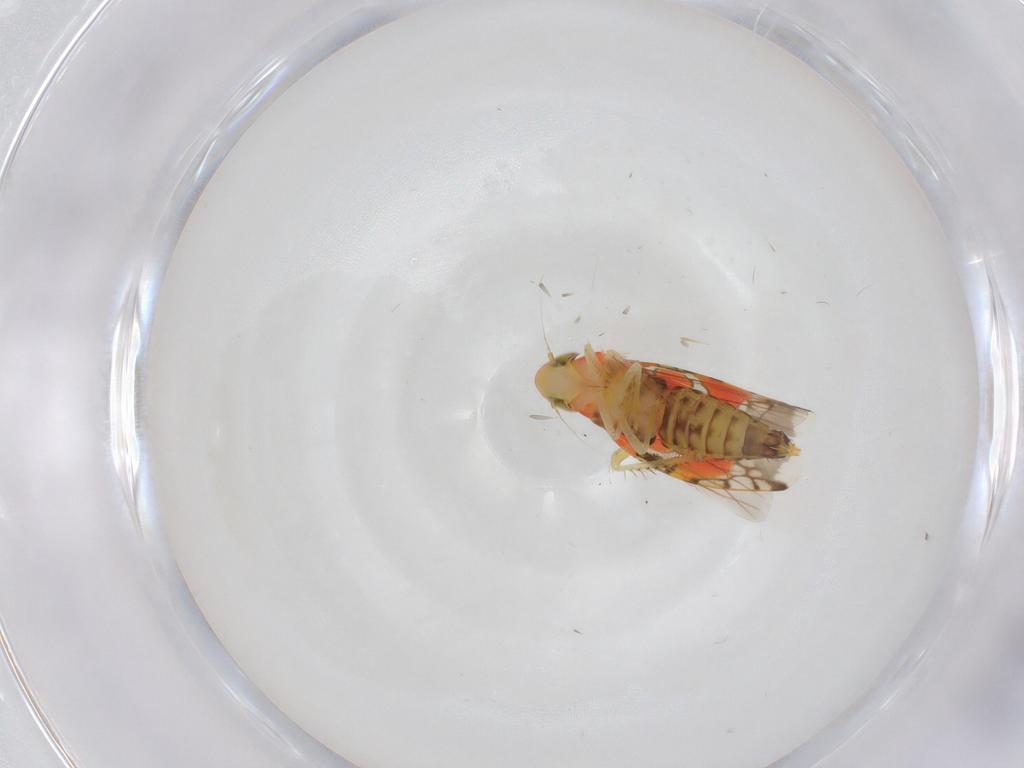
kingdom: Animalia
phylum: Arthropoda
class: Insecta
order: Hemiptera
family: Cicadellidae
